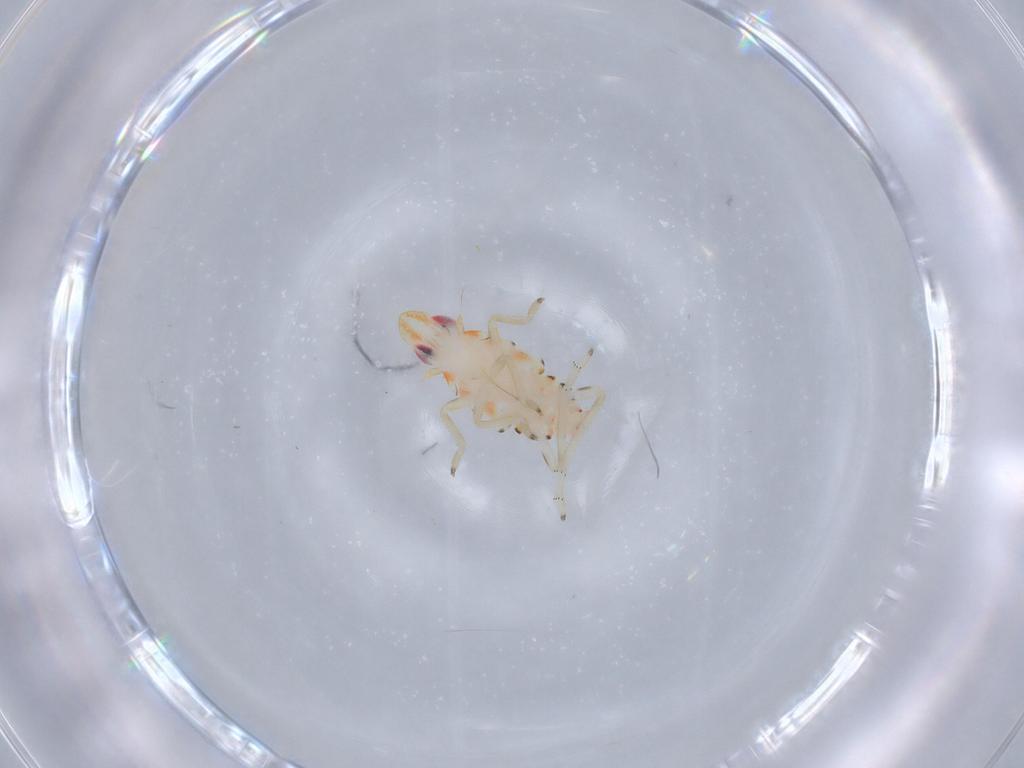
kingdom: Animalia
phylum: Arthropoda
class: Insecta
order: Hemiptera
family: Tropiduchidae
